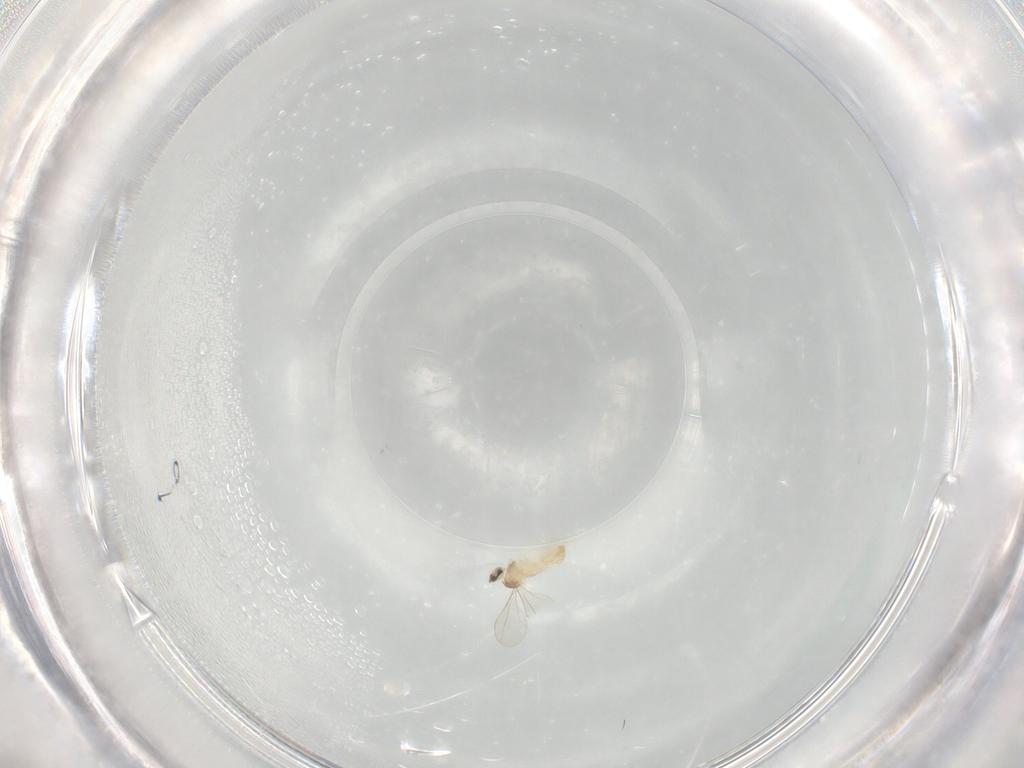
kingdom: Animalia
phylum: Arthropoda
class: Insecta
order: Diptera
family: Cecidomyiidae
